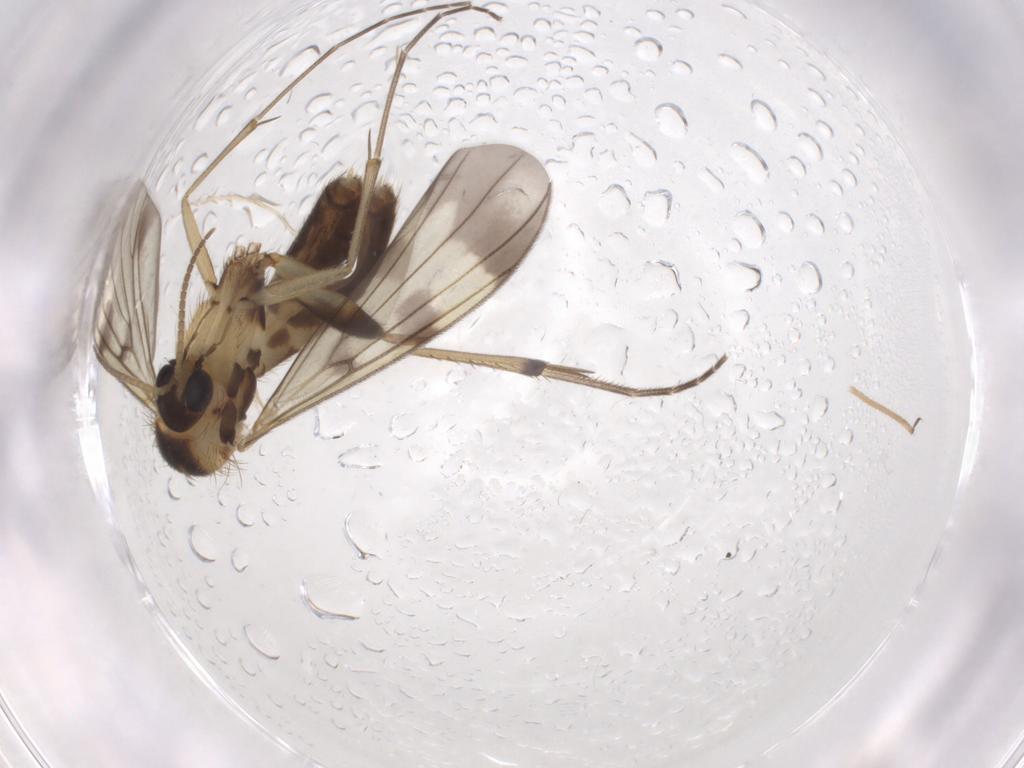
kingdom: Animalia
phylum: Arthropoda
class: Insecta
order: Diptera
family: Mycetophilidae
